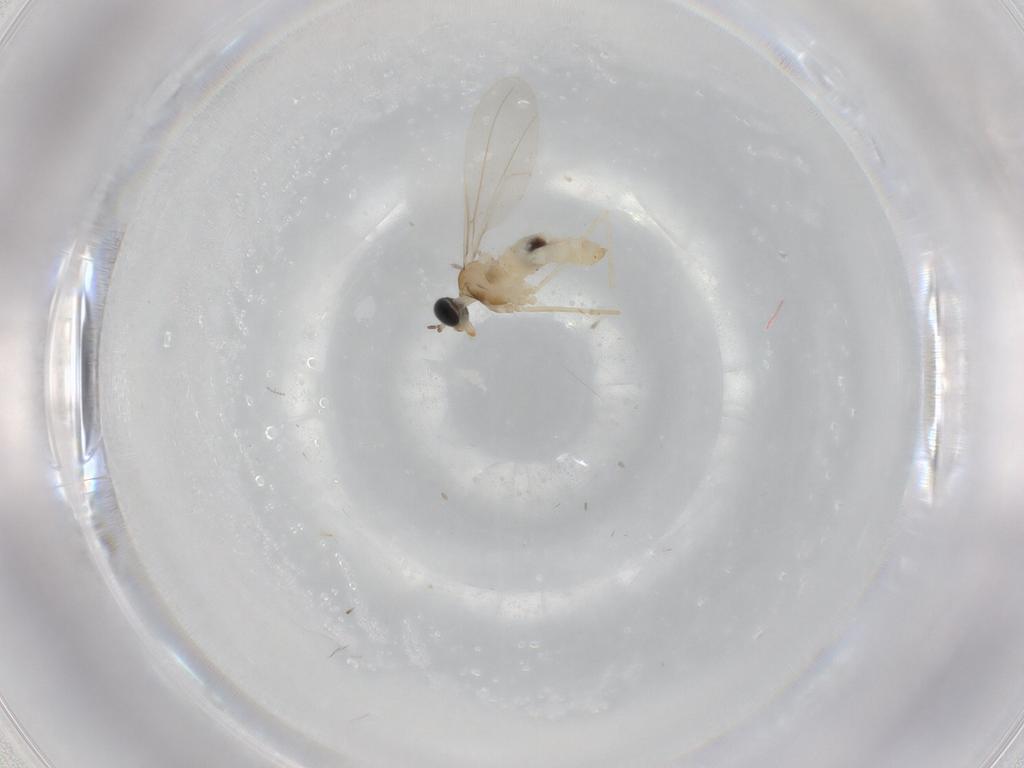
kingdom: Animalia
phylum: Arthropoda
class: Insecta
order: Diptera
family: Cecidomyiidae
